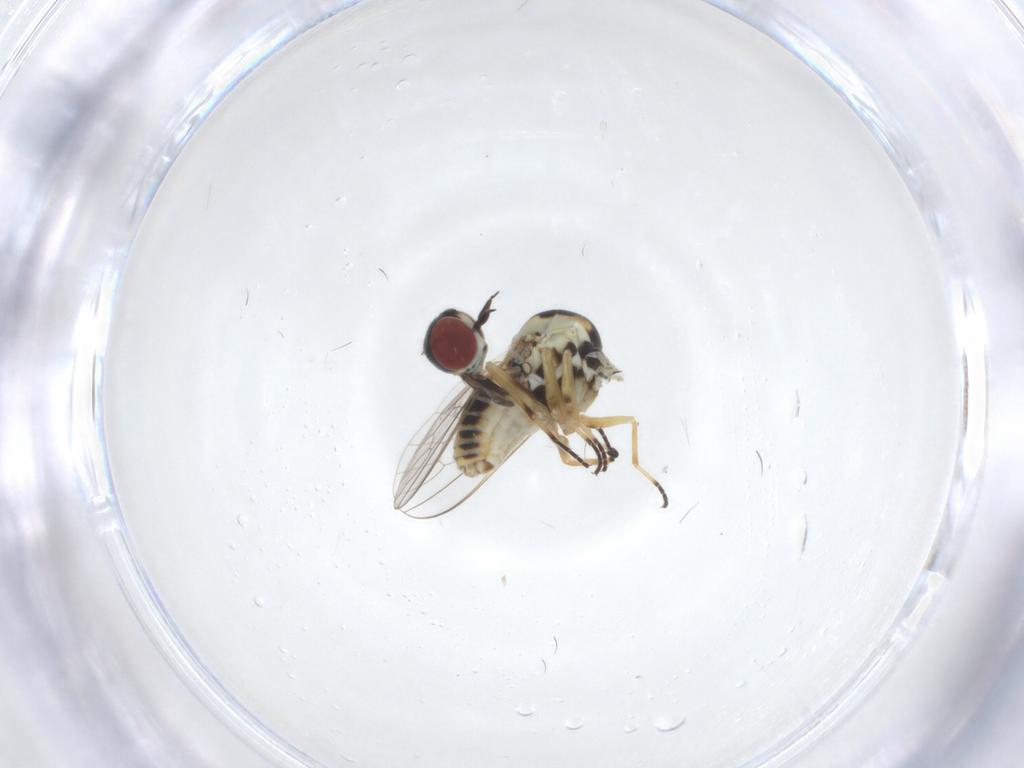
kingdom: Animalia
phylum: Arthropoda
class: Insecta
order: Diptera
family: Mythicomyiidae
